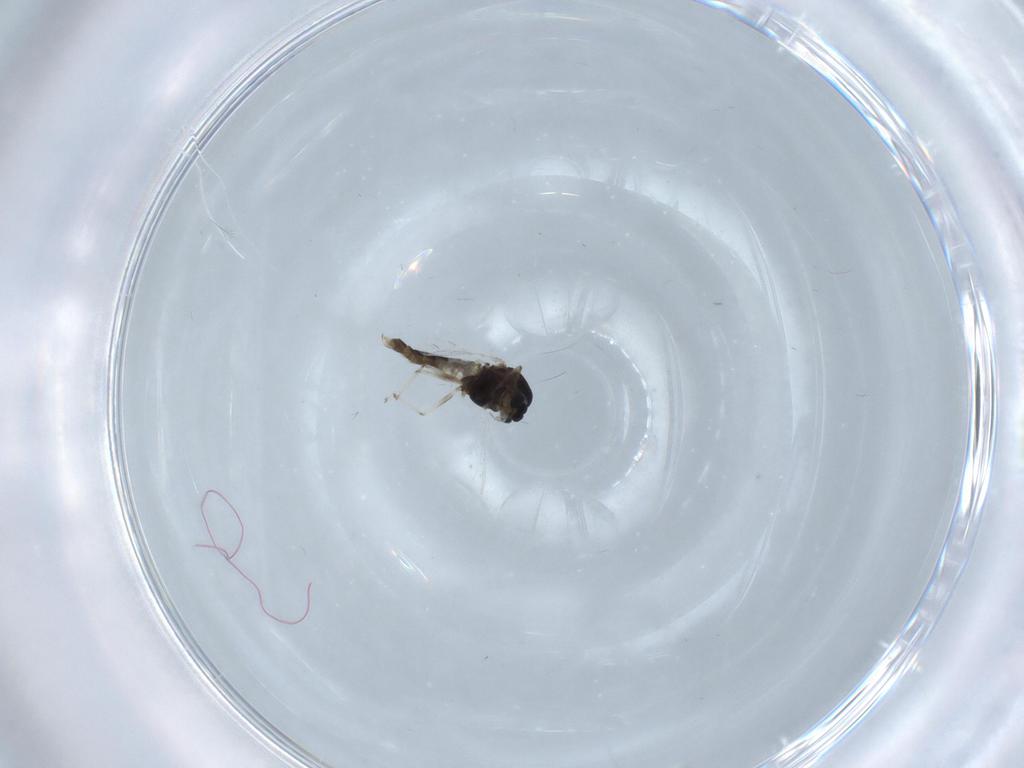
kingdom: Animalia
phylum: Arthropoda
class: Insecta
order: Diptera
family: Chironomidae
